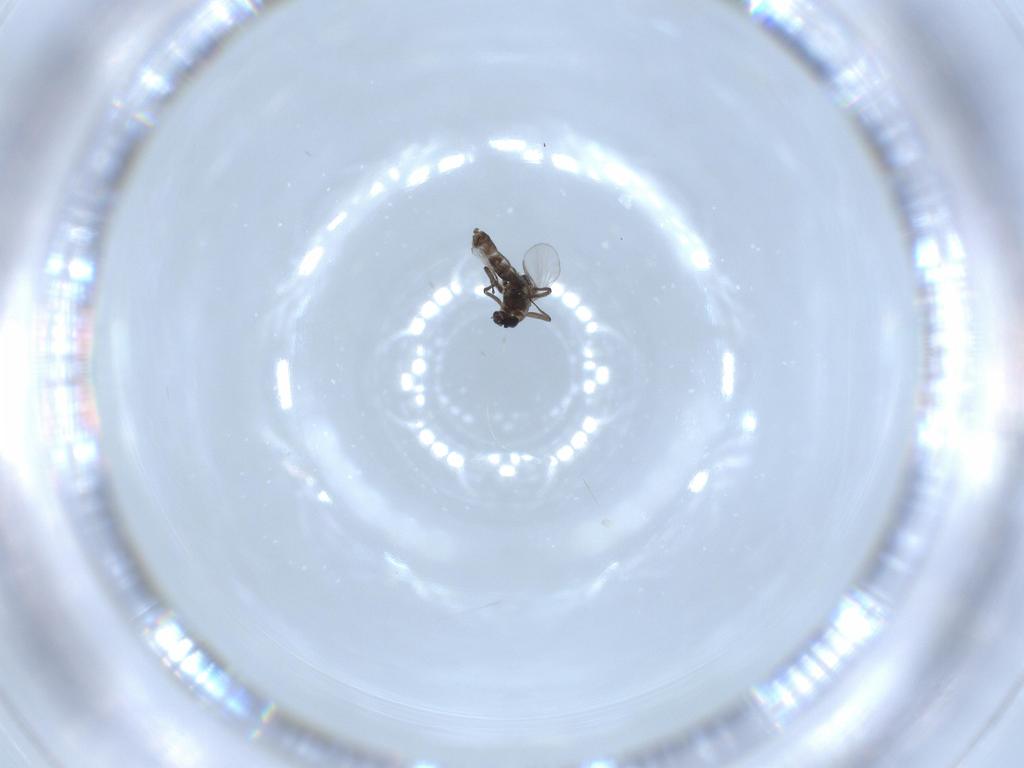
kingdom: Animalia
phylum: Arthropoda
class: Insecta
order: Diptera
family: Chironomidae
